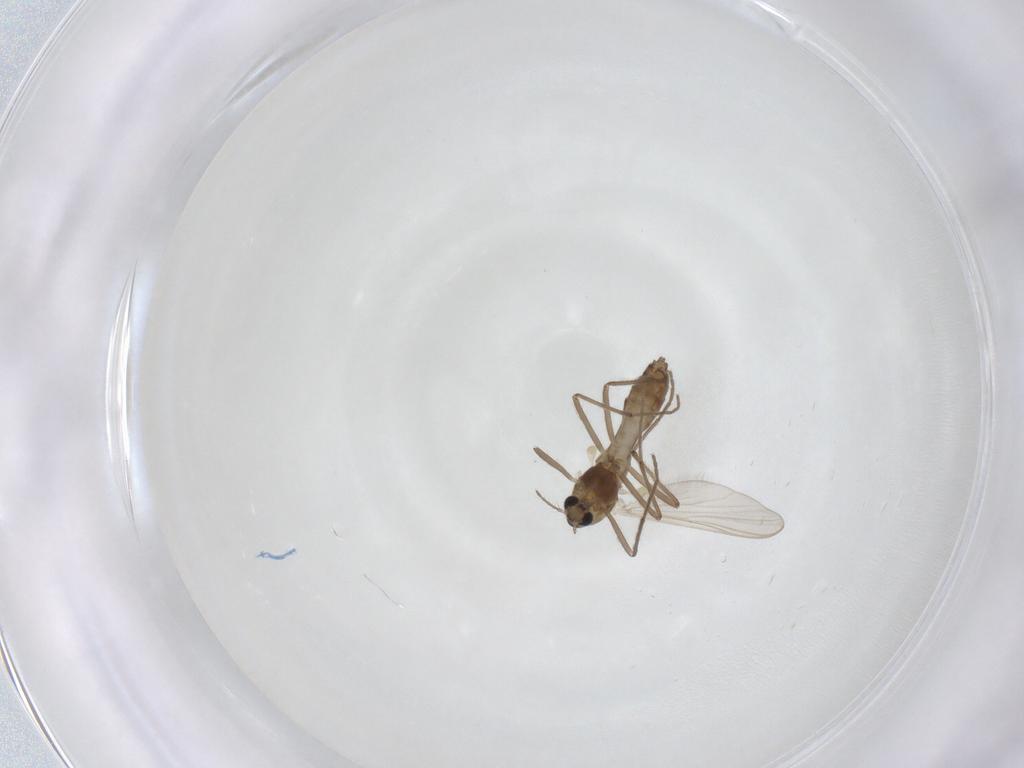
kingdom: Animalia
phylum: Arthropoda
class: Insecta
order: Diptera
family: Chironomidae
